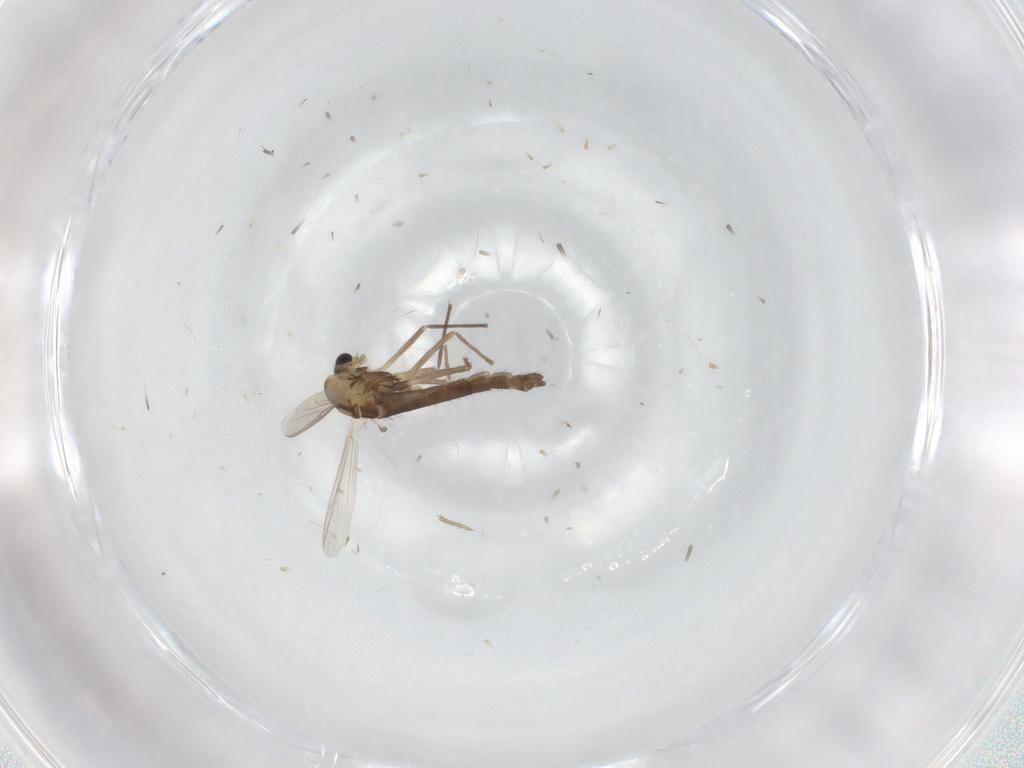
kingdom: Animalia
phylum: Arthropoda
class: Insecta
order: Diptera
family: Chironomidae
